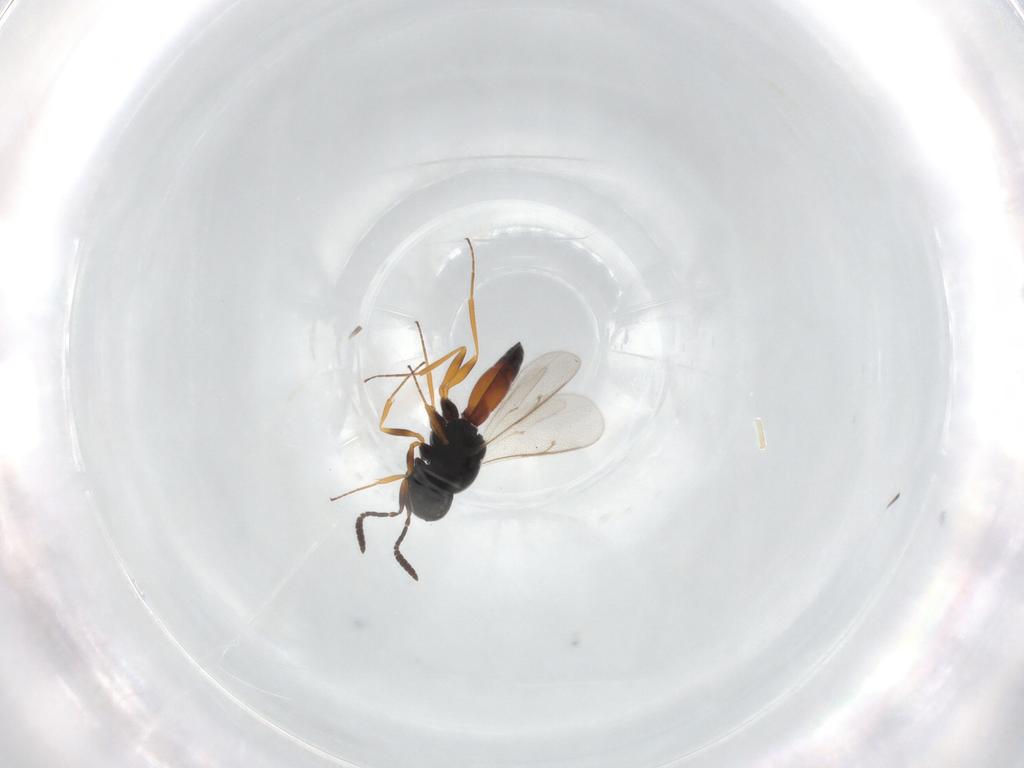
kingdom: Animalia
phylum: Arthropoda
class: Insecta
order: Hymenoptera
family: Scelionidae
